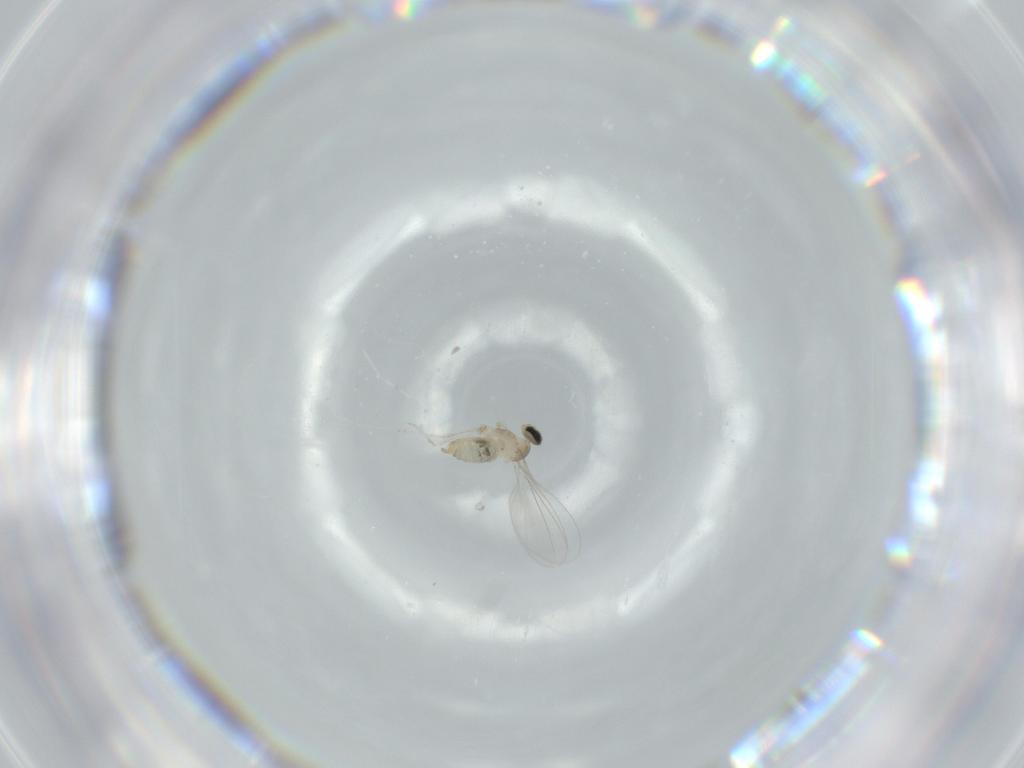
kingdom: Animalia
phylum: Arthropoda
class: Insecta
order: Diptera
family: Cecidomyiidae
